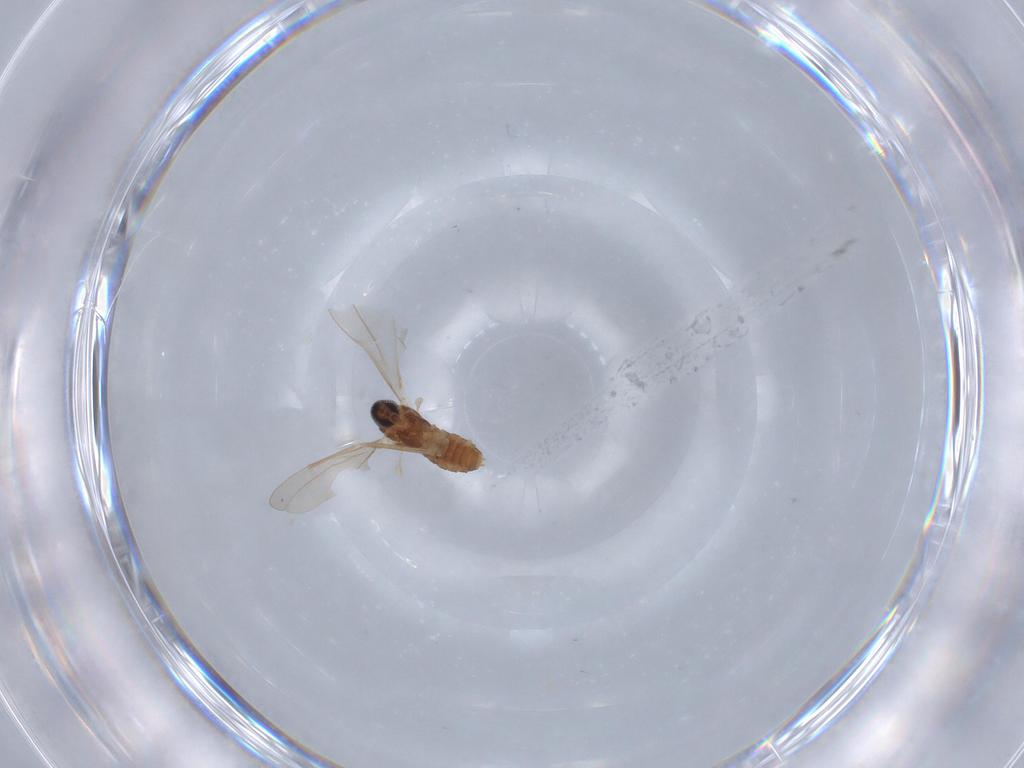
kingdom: Animalia
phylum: Arthropoda
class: Insecta
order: Diptera
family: Cecidomyiidae
